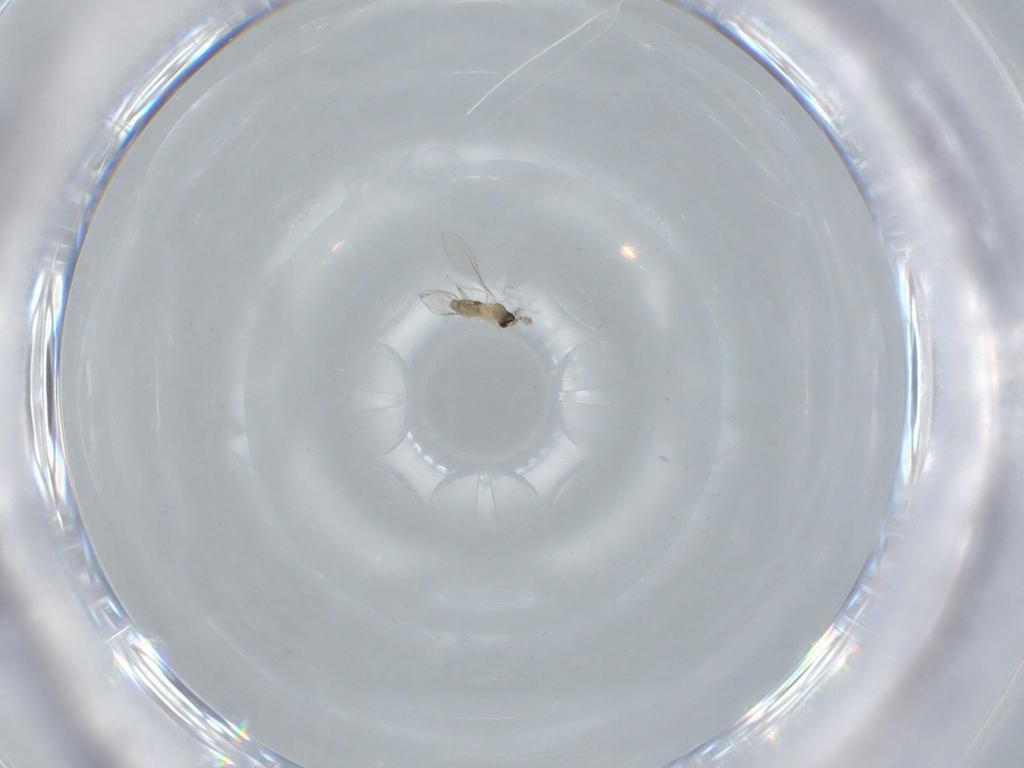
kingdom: Animalia
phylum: Arthropoda
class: Insecta
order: Diptera
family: Cecidomyiidae
